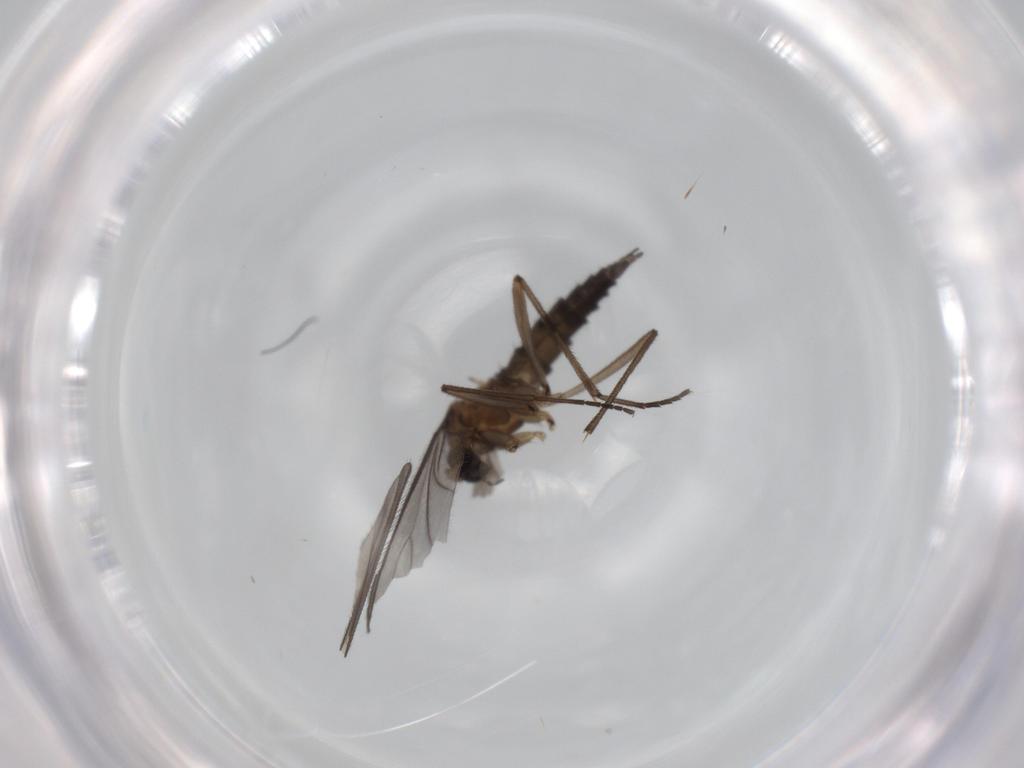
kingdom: Animalia
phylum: Arthropoda
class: Insecta
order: Diptera
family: Sciaridae
